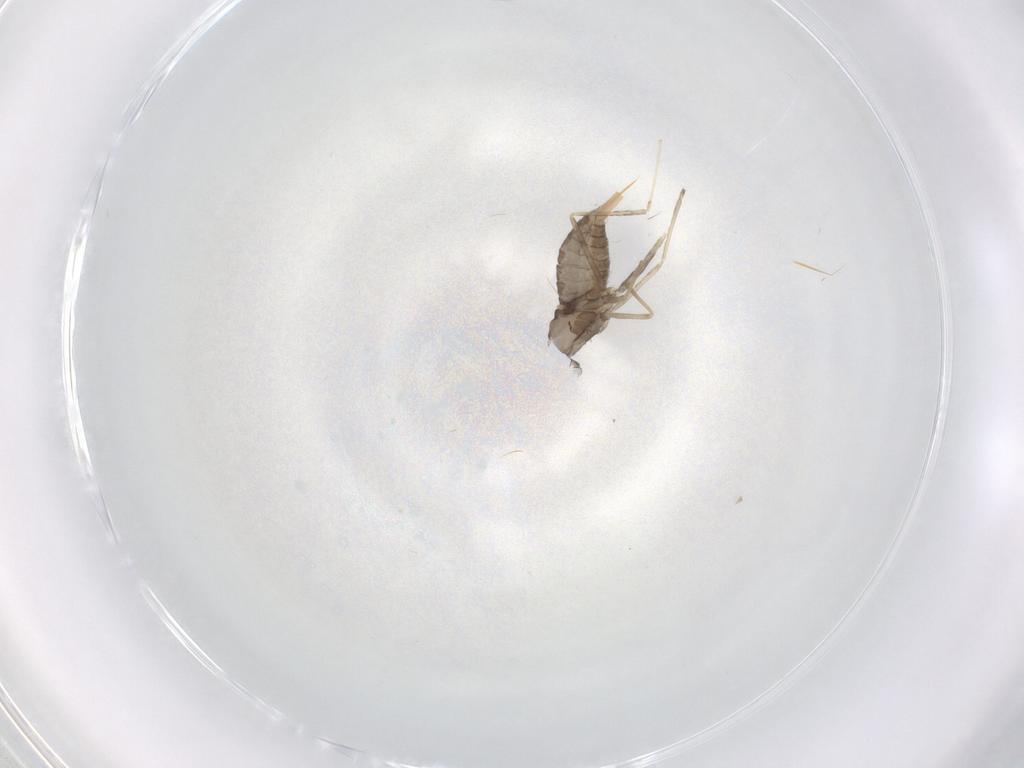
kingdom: Animalia
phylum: Arthropoda
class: Insecta
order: Diptera
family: Cecidomyiidae
